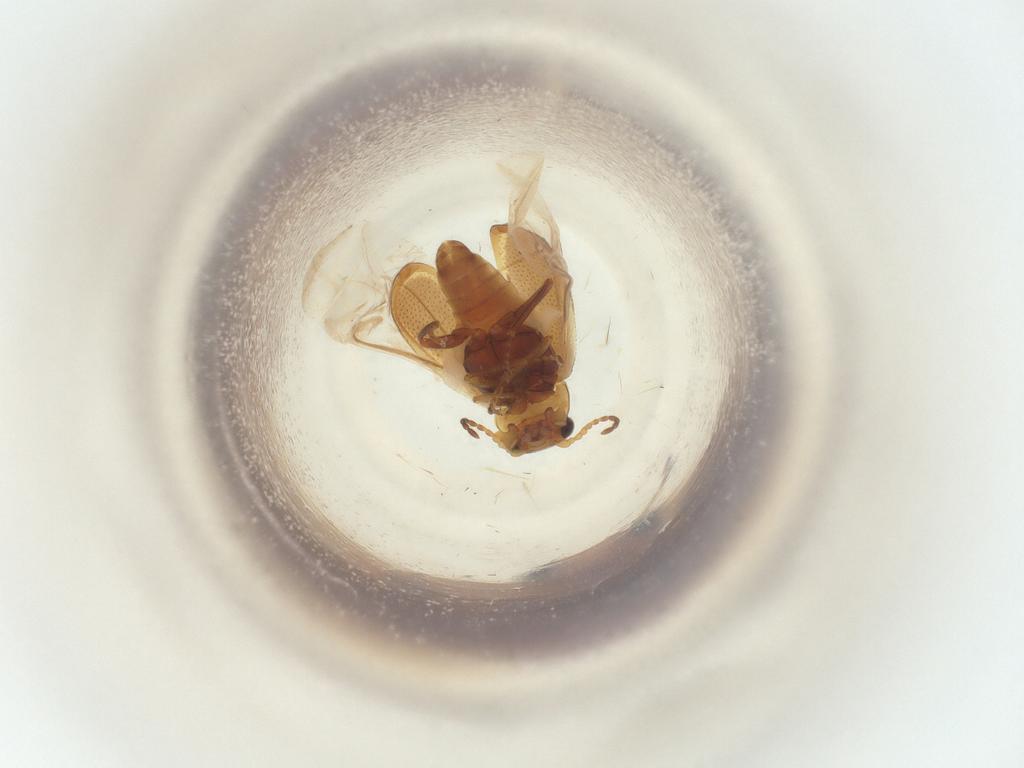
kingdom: Animalia
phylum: Arthropoda
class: Insecta
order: Coleoptera
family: Melyridae
